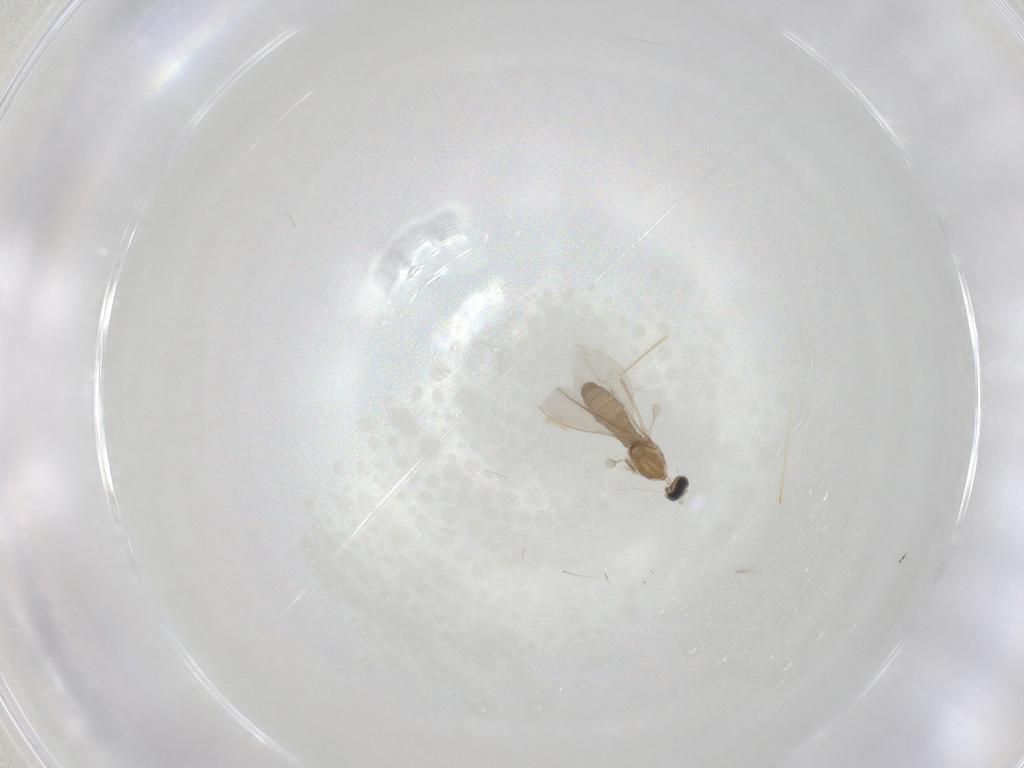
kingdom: Animalia
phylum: Arthropoda
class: Insecta
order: Diptera
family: Cecidomyiidae
